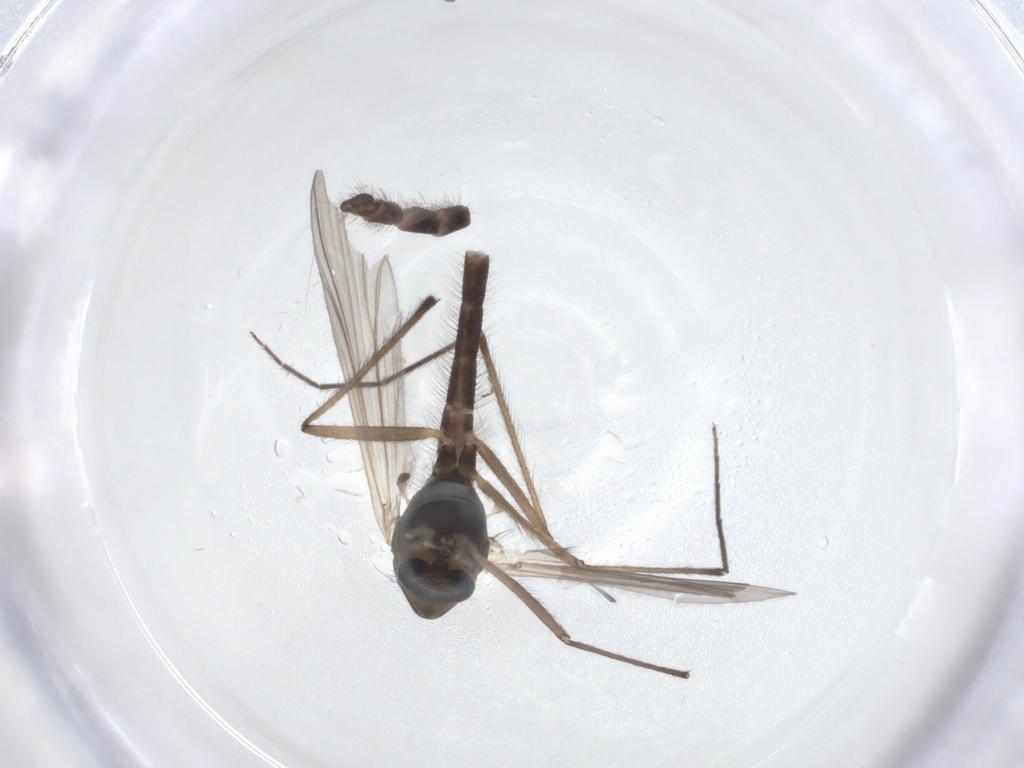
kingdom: Animalia
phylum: Arthropoda
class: Insecta
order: Diptera
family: Chironomidae
